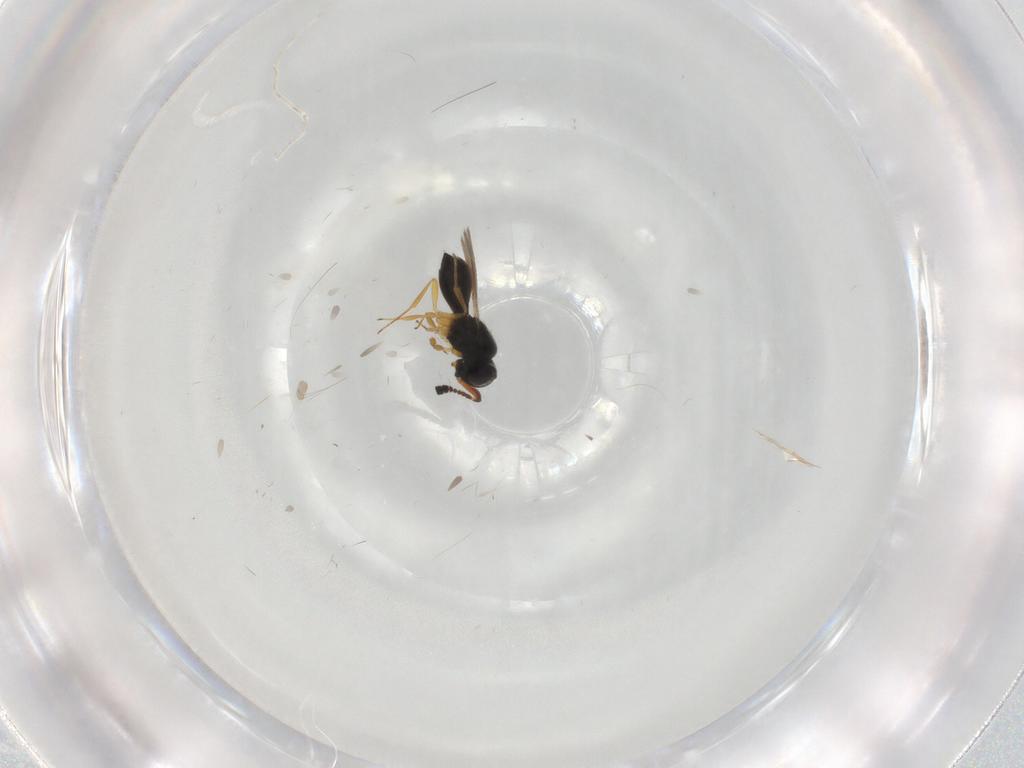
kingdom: Animalia
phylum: Arthropoda
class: Insecta
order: Hymenoptera
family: Scelionidae
